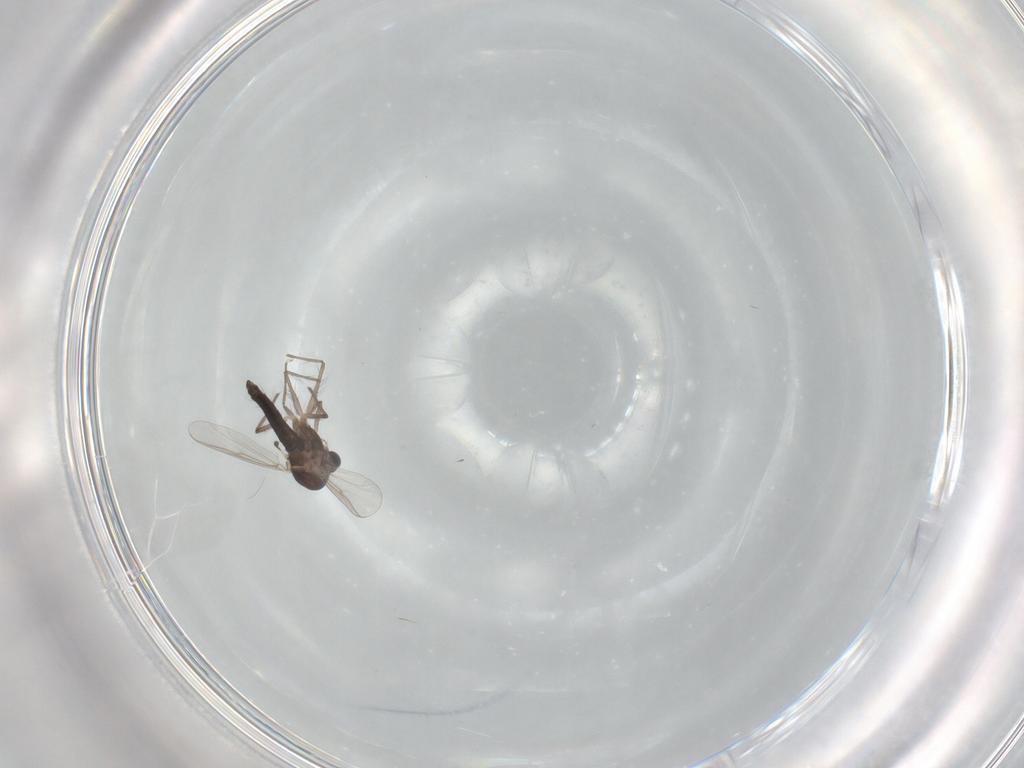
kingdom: Animalia
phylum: Arthropoda
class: Insecta
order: Diptera
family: Chironomidae
